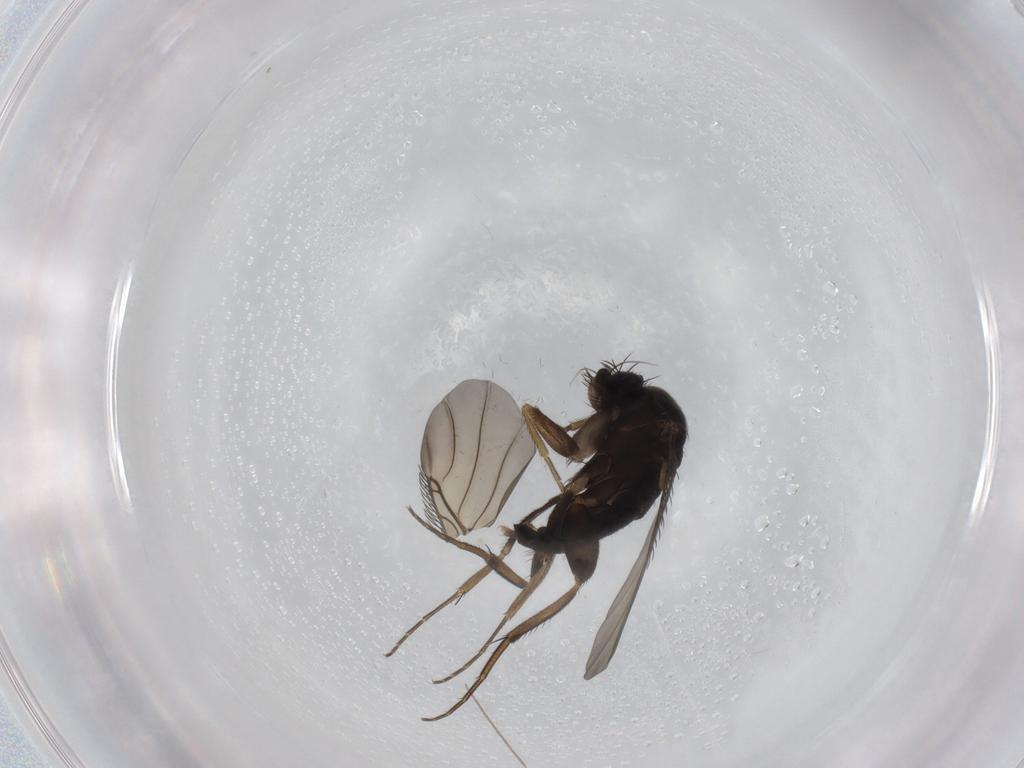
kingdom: Animalia
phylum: Arthropoda
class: Insecta
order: Diptera
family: Phoridae
